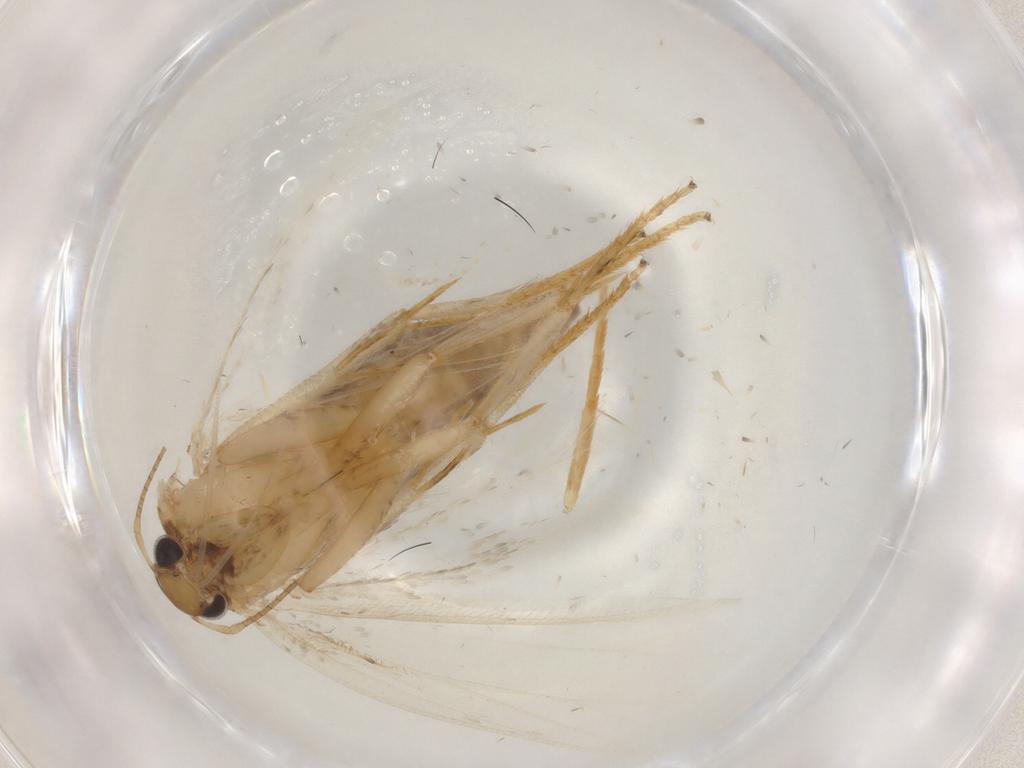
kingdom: Animalia
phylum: Arthropoda
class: Insecta
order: Lepidoptera
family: Gelechiidae
